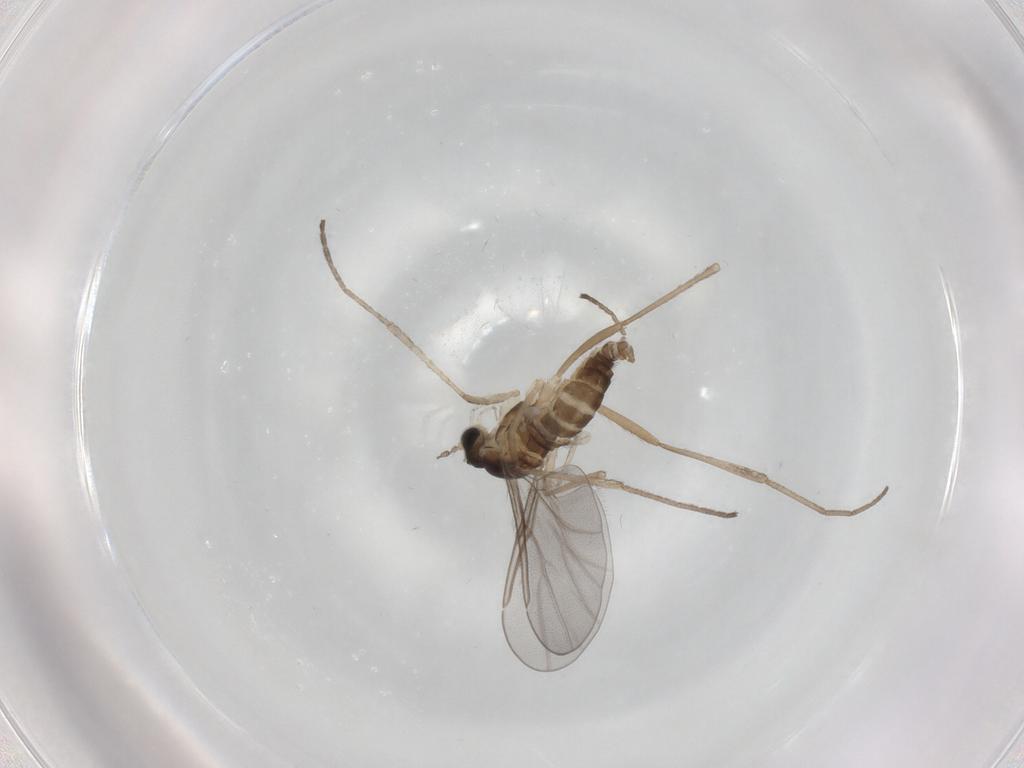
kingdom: Animalia
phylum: Arthropoda
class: Insecta
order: Diptera
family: Cecidomyiidae
